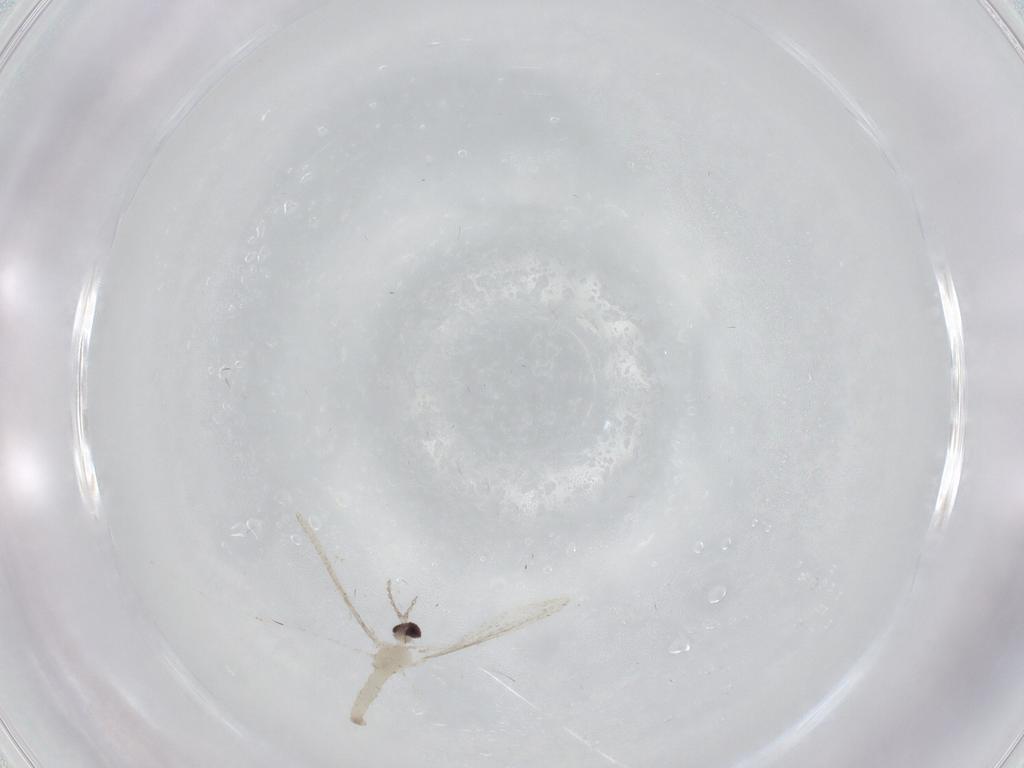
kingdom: Animalia
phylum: Arthropoda
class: Insecta
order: Diptera
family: Cecidomyiidae
